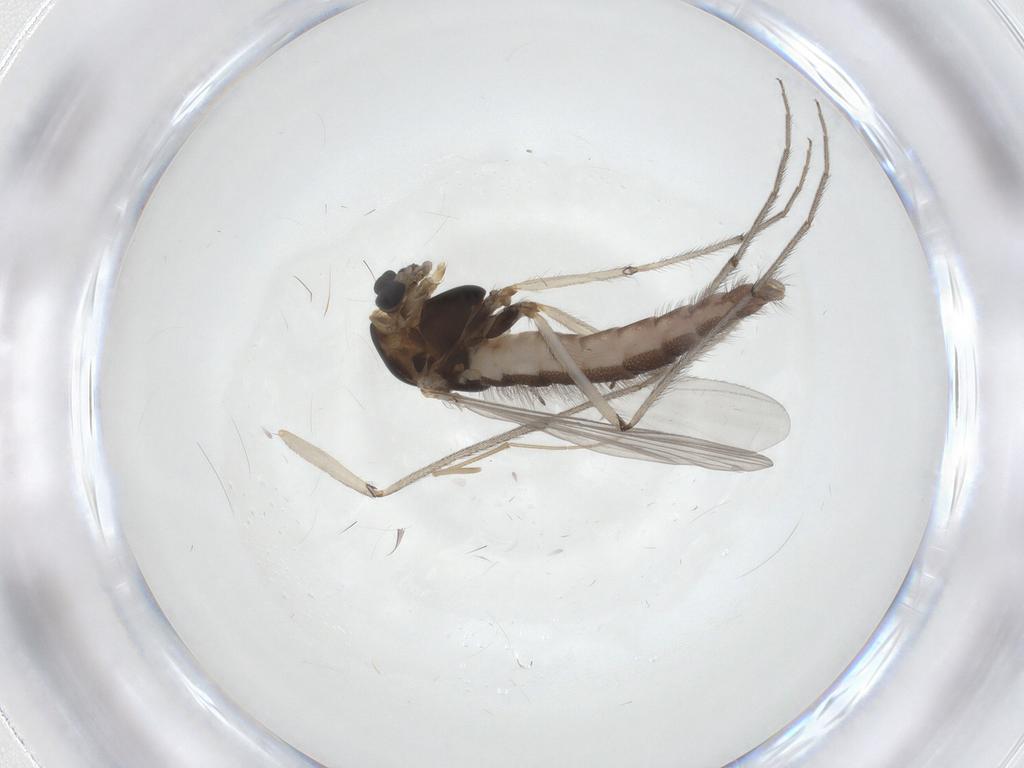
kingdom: Animalia
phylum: Arthropoda
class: Insecta
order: Diptera
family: Chironomidae
